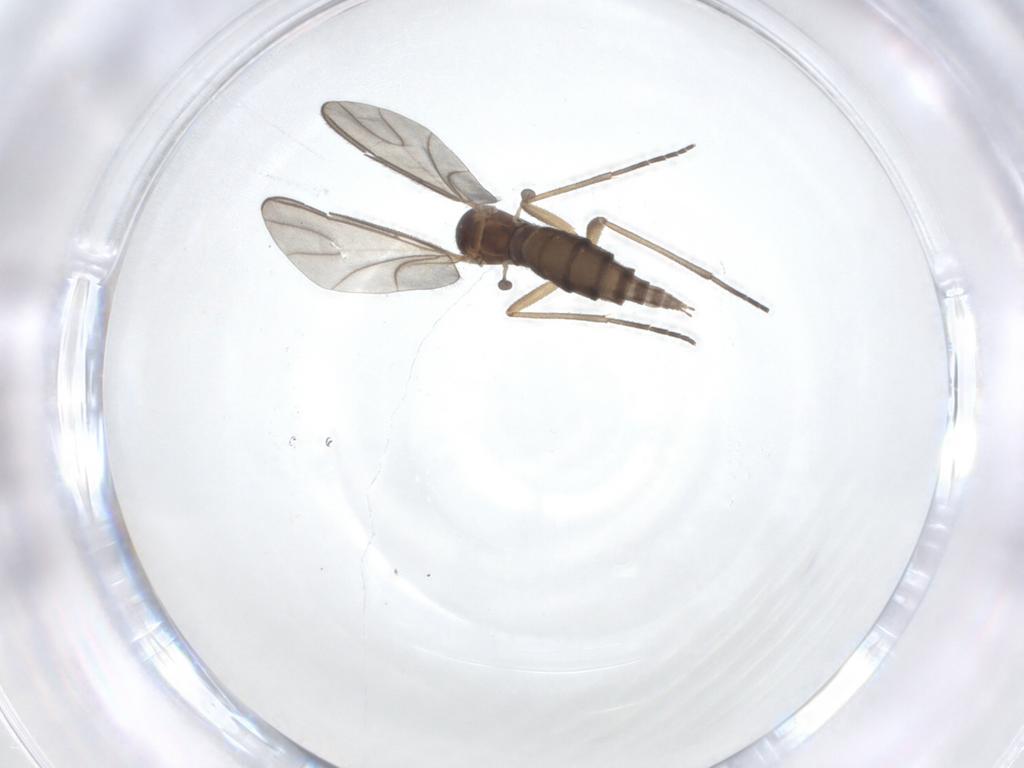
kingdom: Animalia
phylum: Arthropoda
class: Insecta
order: Diptera
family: Sciaridae
